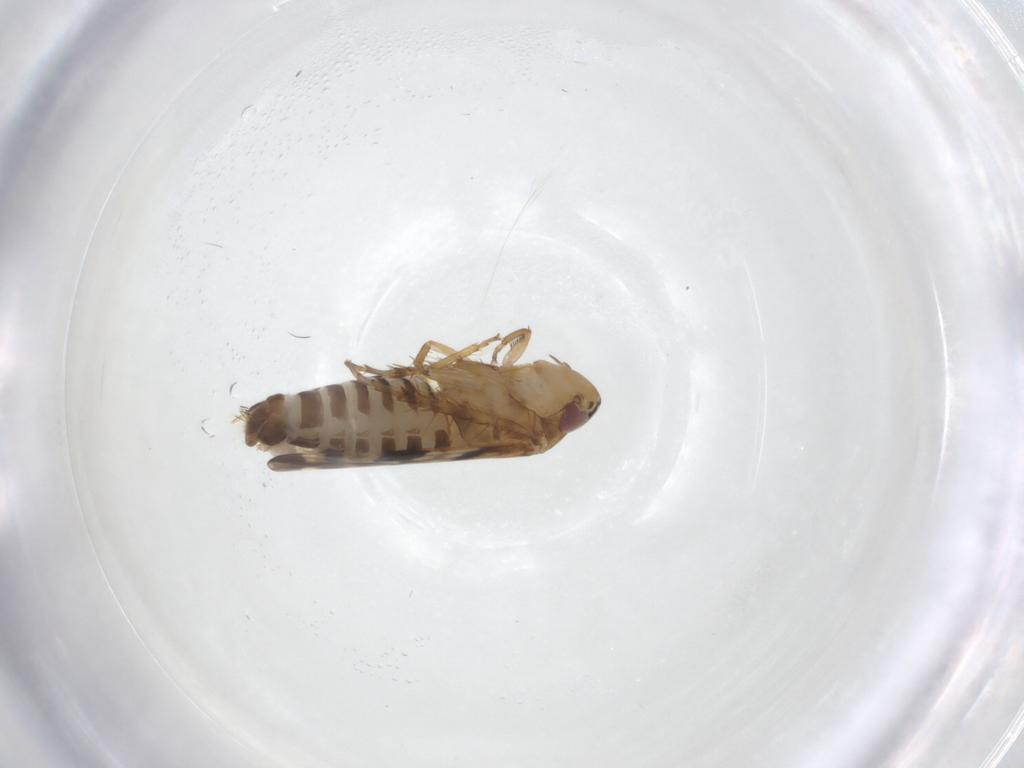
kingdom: Animalia
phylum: Arthropoda
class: Insecta
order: Hemiptera
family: Cicadellidae
